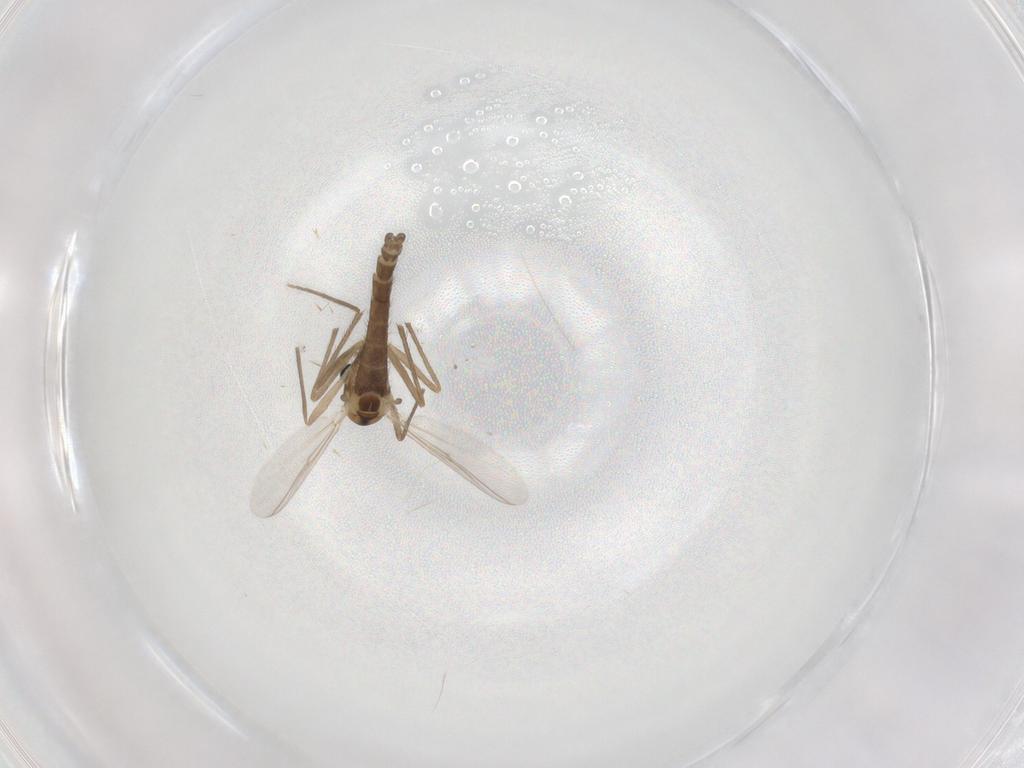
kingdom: Animalia
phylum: Arthropoda
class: Insecta
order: Diptera
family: Chironomidae
